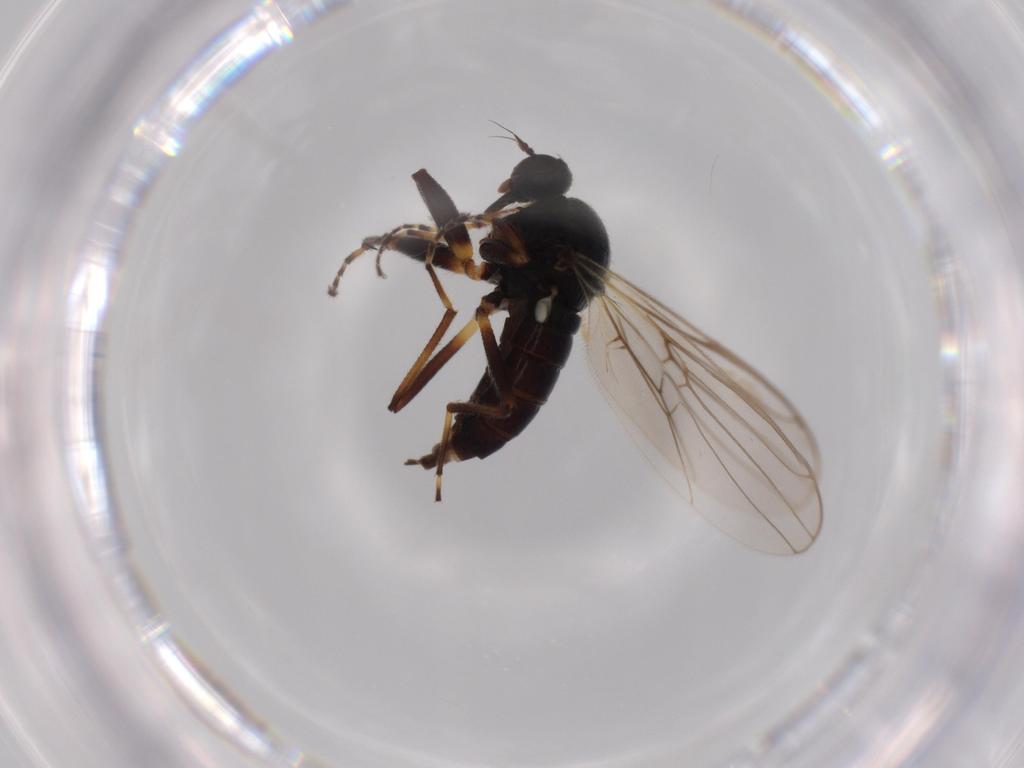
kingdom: Animalia
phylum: Arthropoda
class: Insecta
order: Diptera
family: Hybotidae
